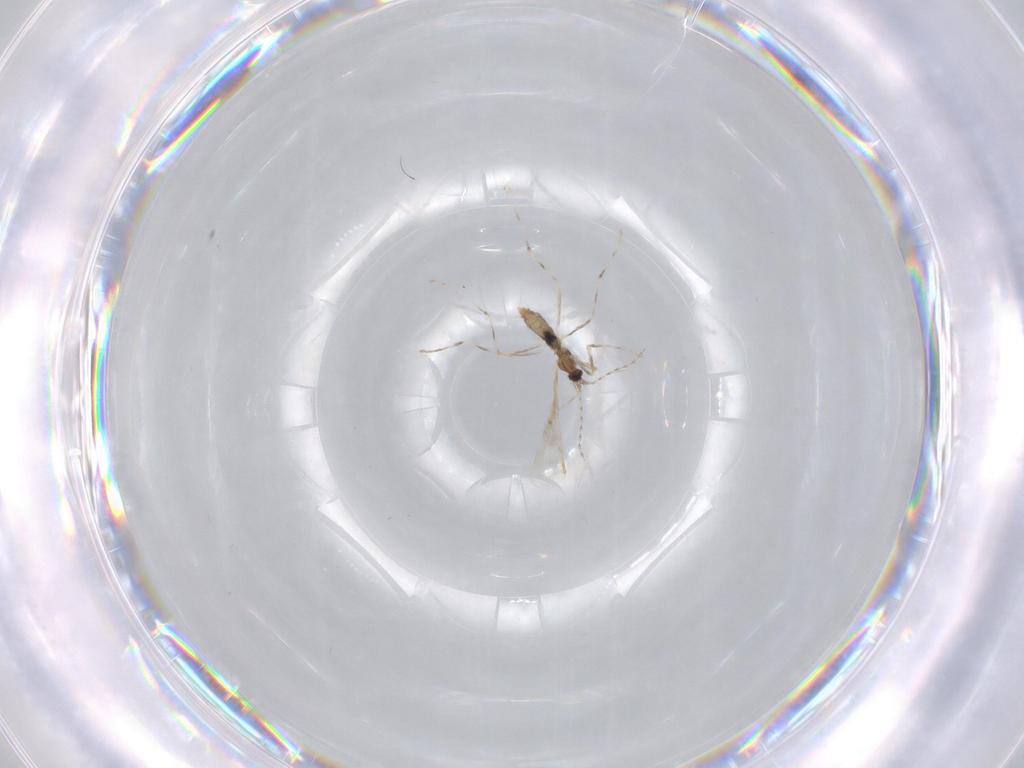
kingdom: Animalia
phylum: Arthropoda
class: Insecta
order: Diptera
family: Cecidomyiidae
